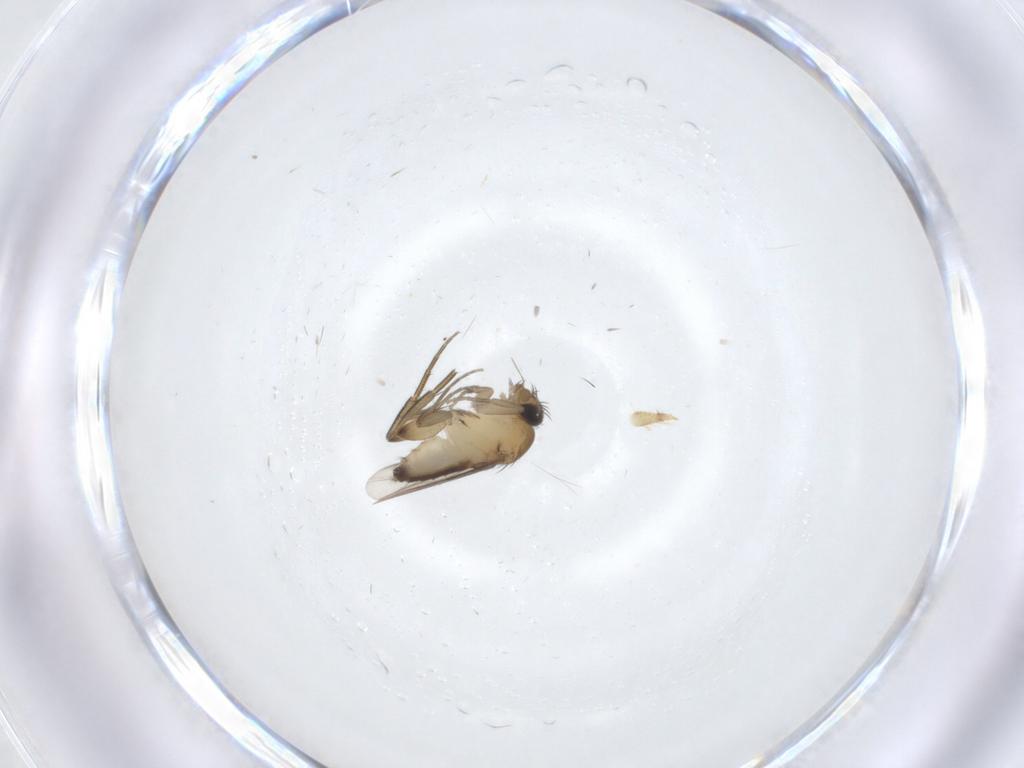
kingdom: Animalia
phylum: Arthropoda
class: Insecta
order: Diptera
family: Phoridae
